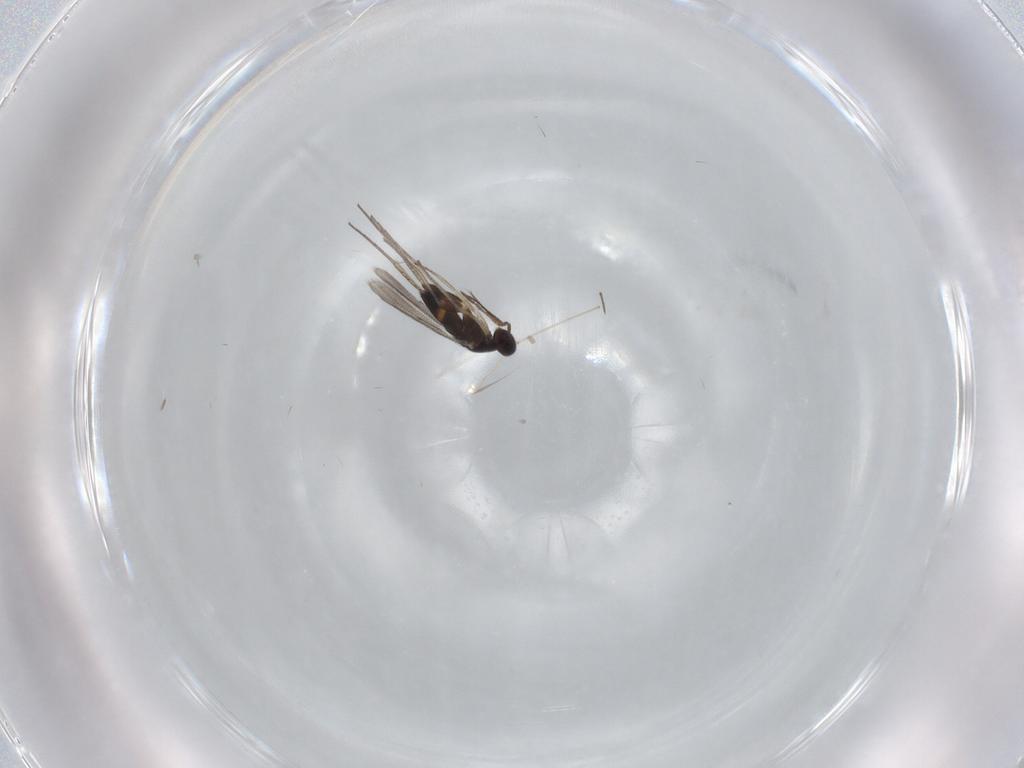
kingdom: Animalia
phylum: Arthropoda
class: Insecta
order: Hymenoptera
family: Eulophidae
